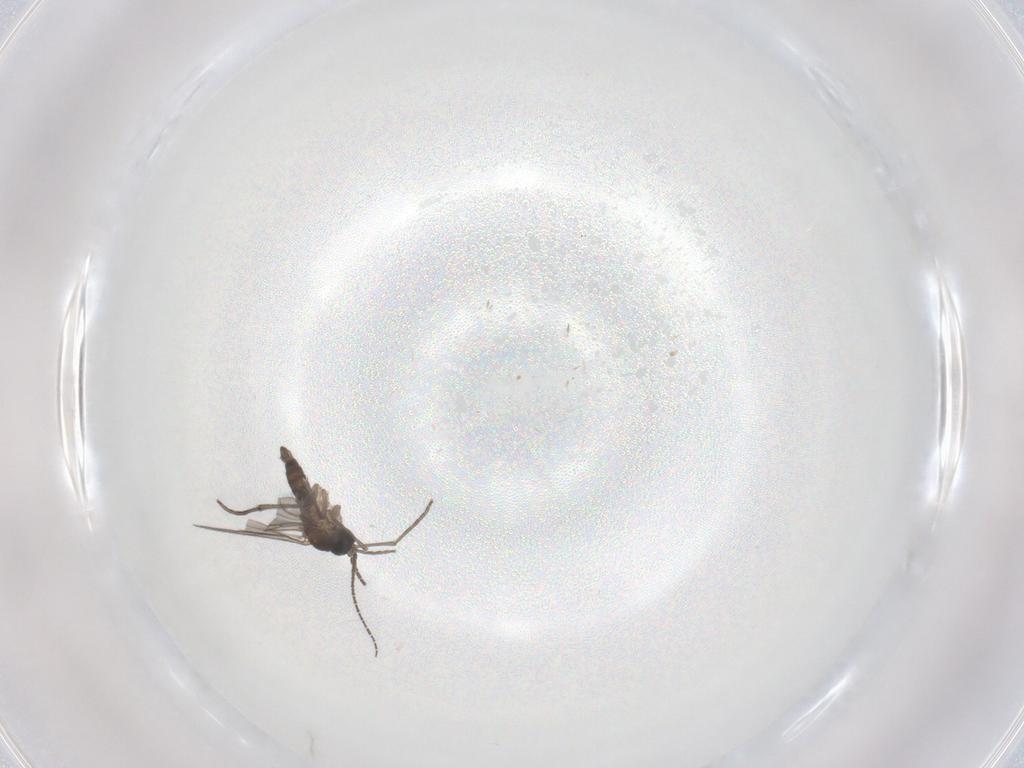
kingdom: Animalia
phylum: Arthropoda
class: Insecta
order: Diptera
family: Sciaridae
